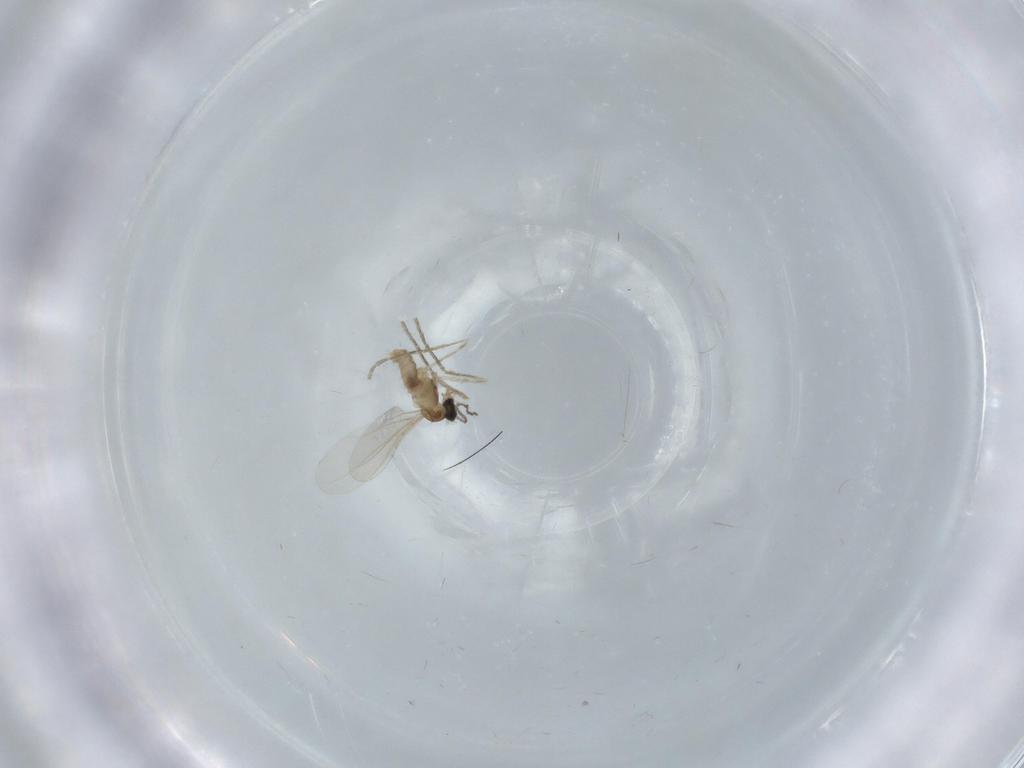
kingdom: Animalia
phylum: Arthropoda
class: Insecta
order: Diptera
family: Cecidomyiidae
